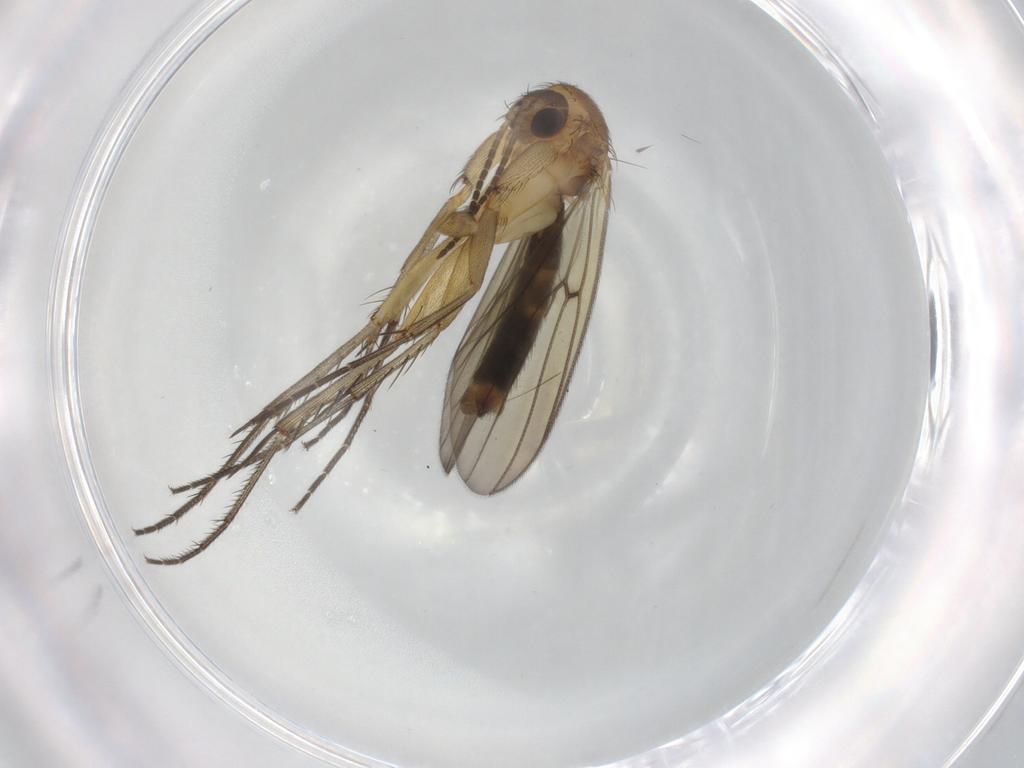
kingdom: Animalia
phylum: Arthropoda
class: Insecta
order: Diptera
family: Mycetophilidae
